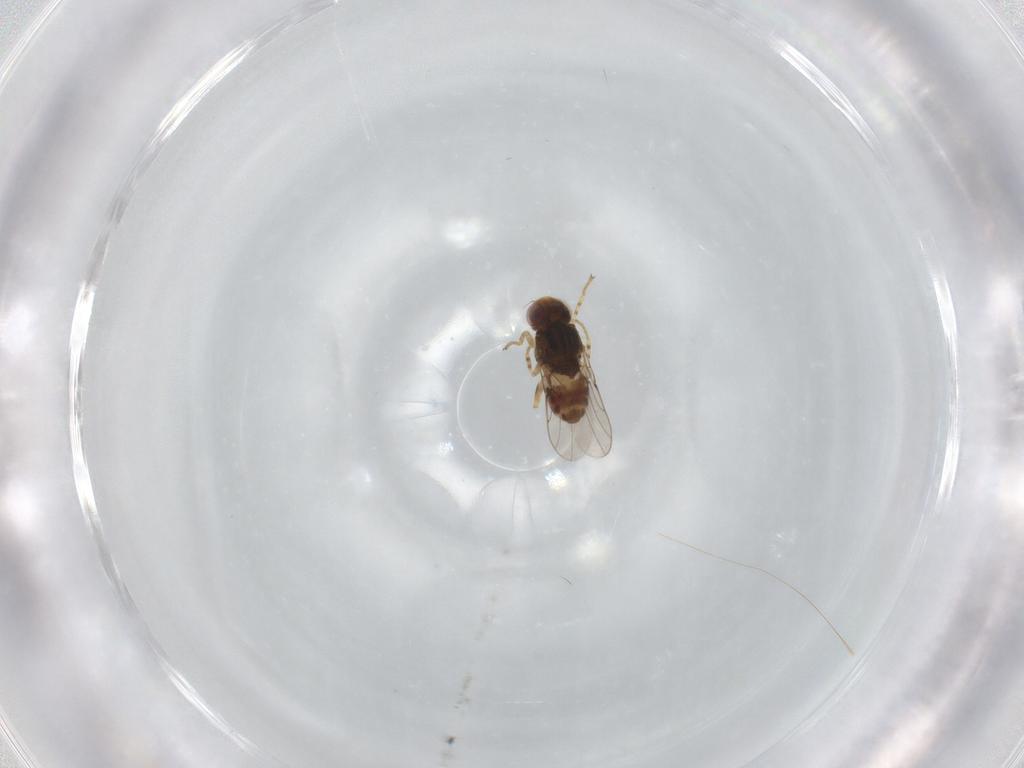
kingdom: Animalia
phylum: Arthropoda
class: Insecta
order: Diptera
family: Chloropidae
